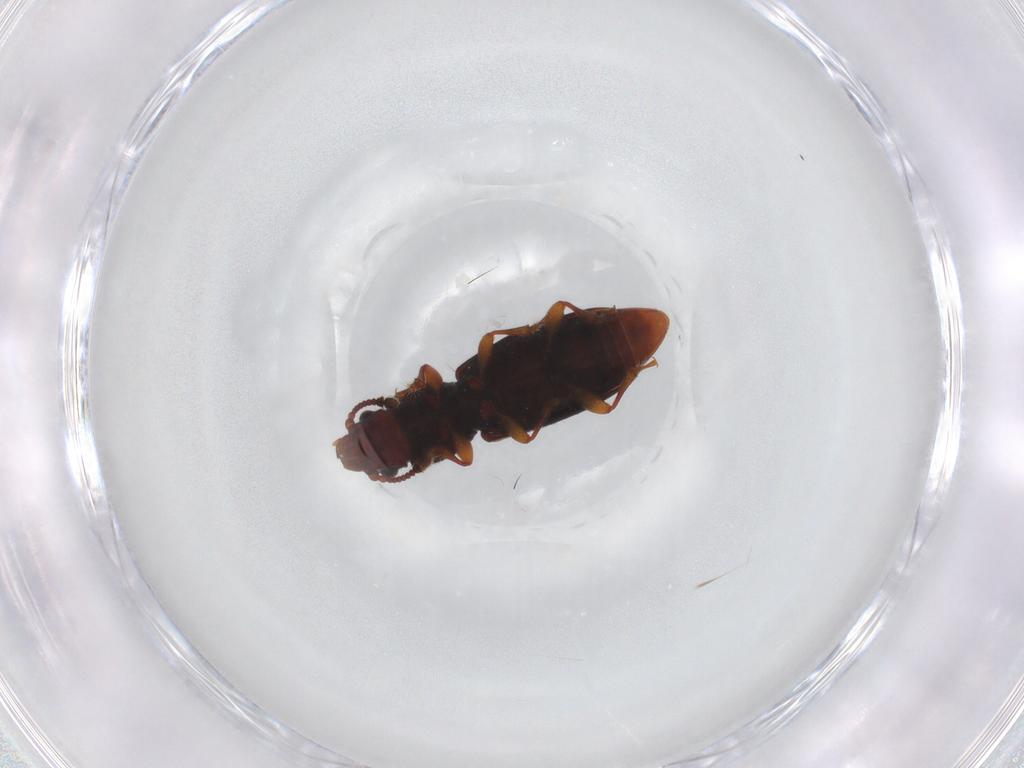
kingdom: Animalia
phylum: Arthropoda
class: Insecta
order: Coleoptera
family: Monotomidae
